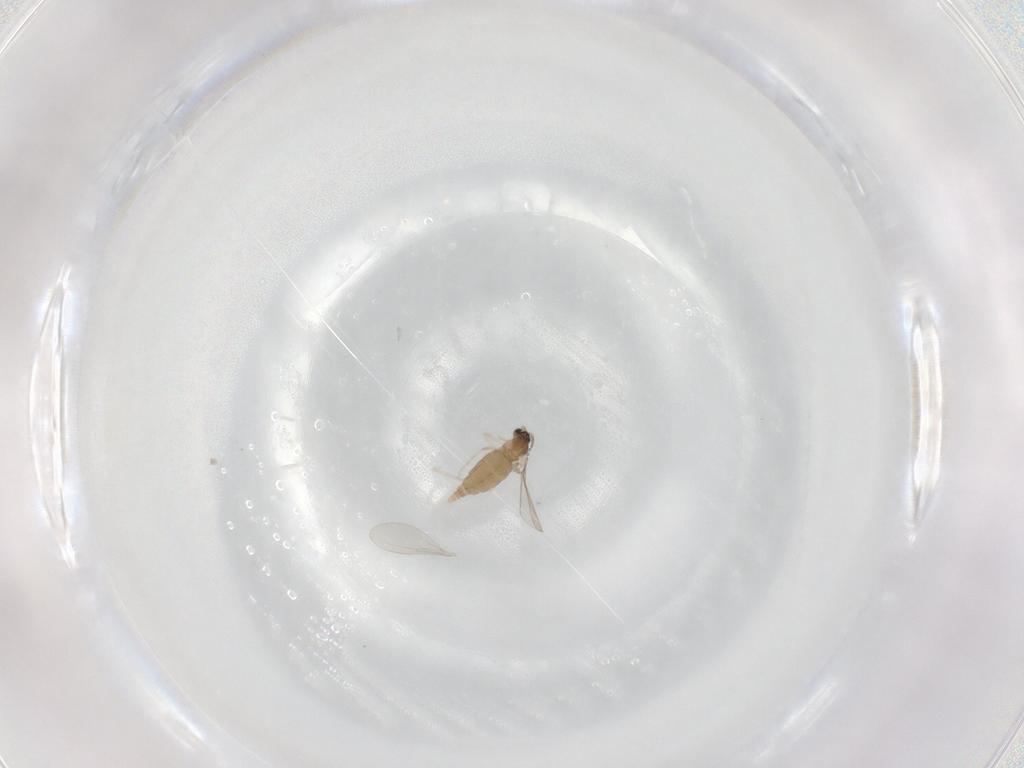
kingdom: Animalia
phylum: Arthropoda
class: Insecta
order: Diptera
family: Cecidomyiidae
